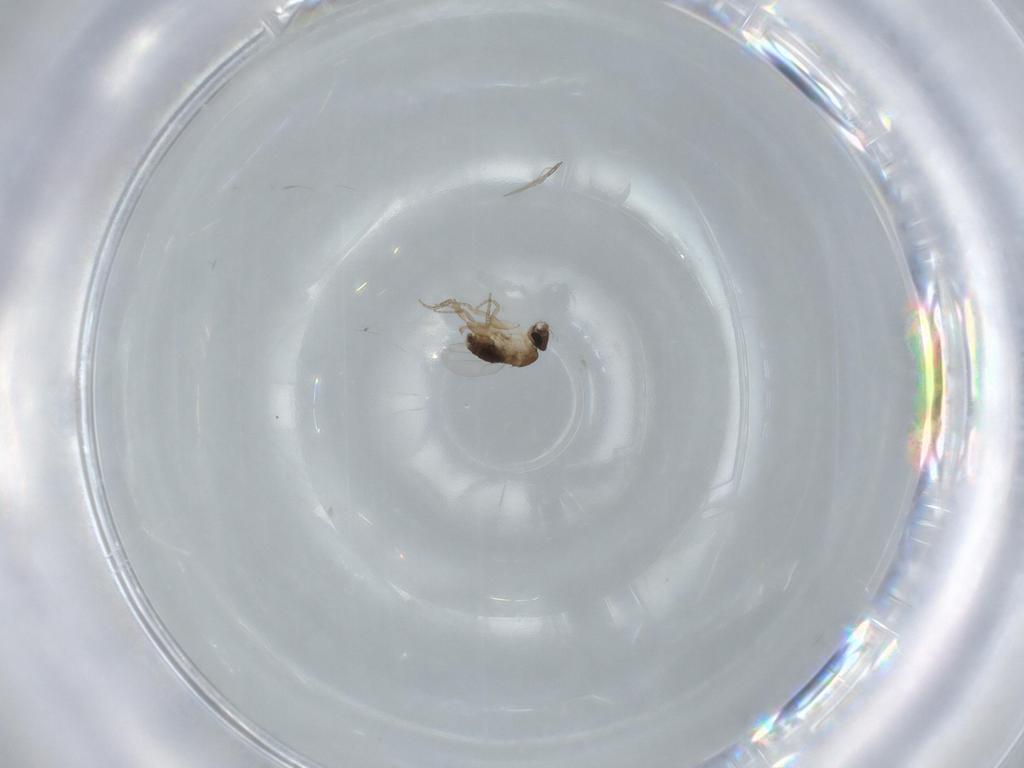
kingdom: Animalia
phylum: Arthropoda
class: Insecta
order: Diptera
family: Phoridae
